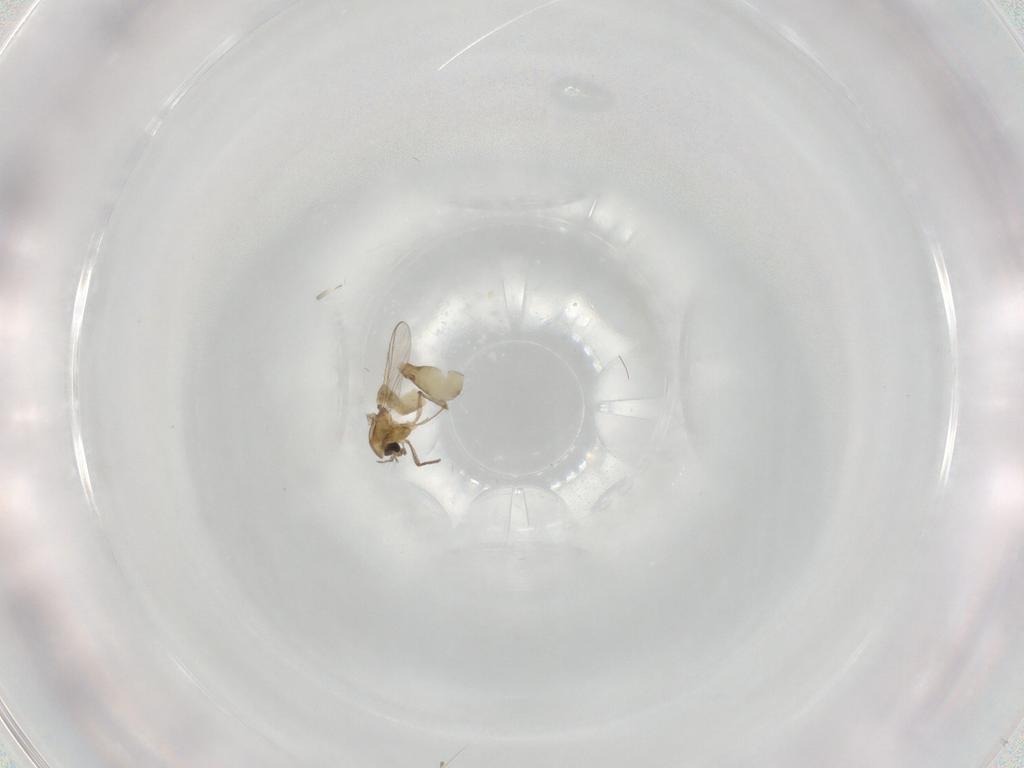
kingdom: Animalia
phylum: Arthropoda
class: Insecta
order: Diptera
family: Chironomidae
